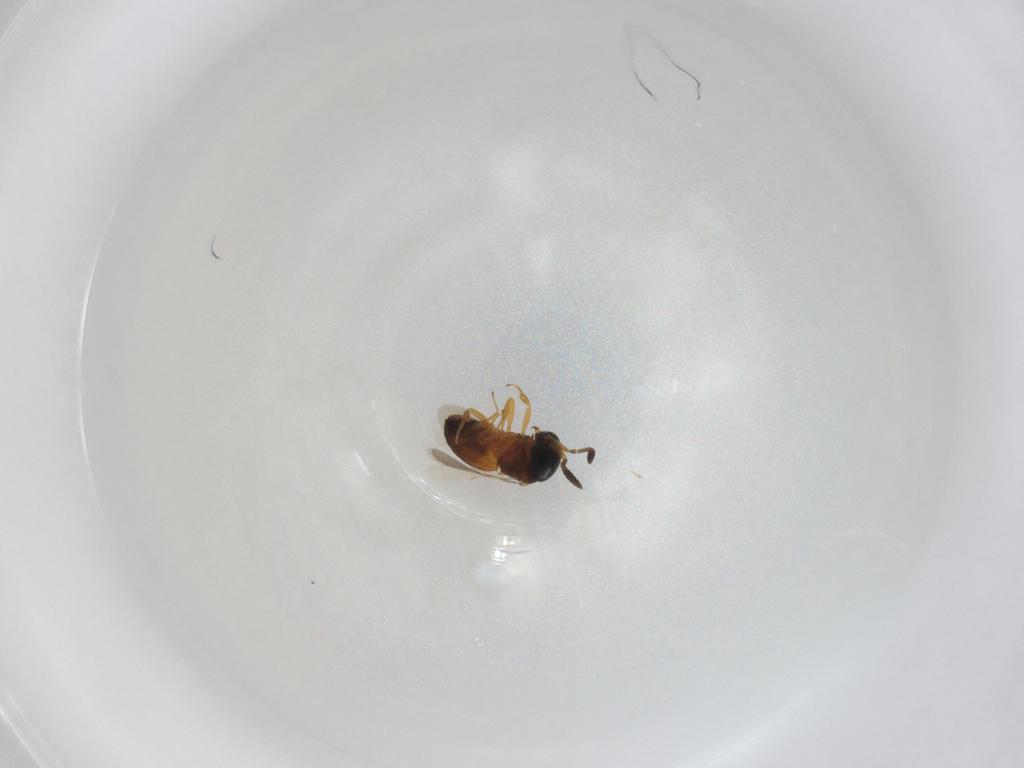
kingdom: Animalia
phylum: Arthropoda
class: Insecta
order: Hymenoptera
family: Scelionidae
